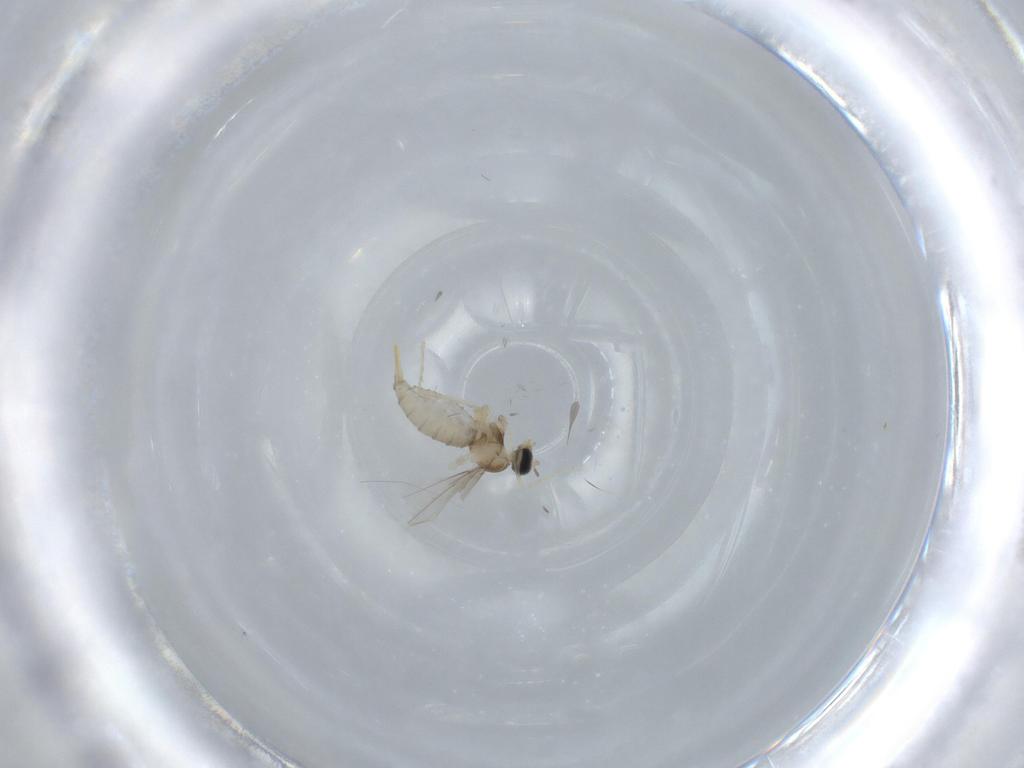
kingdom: Animalia
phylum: Arthropoda
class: Insecta
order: Diptera
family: Cecidomyiidae
